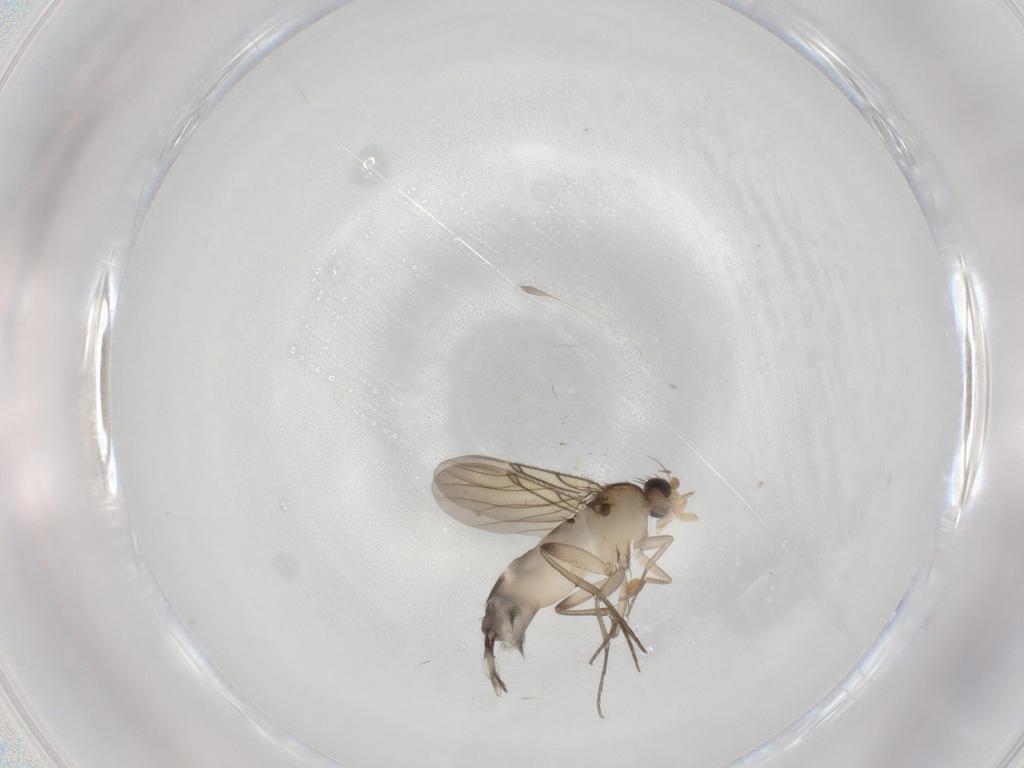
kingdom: Animalia
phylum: Arthropoda
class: Insecta
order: Diptera
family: Phoridae
